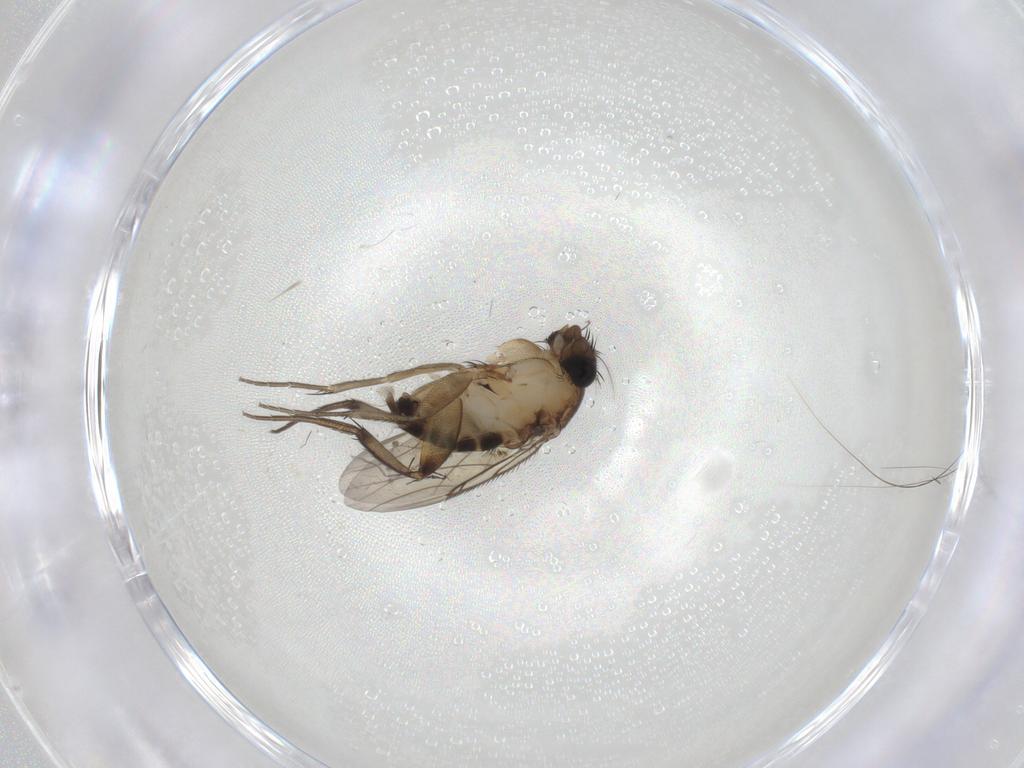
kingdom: Animalia
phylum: Arthropoda
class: Insecta
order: Diptera
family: Phoridae
